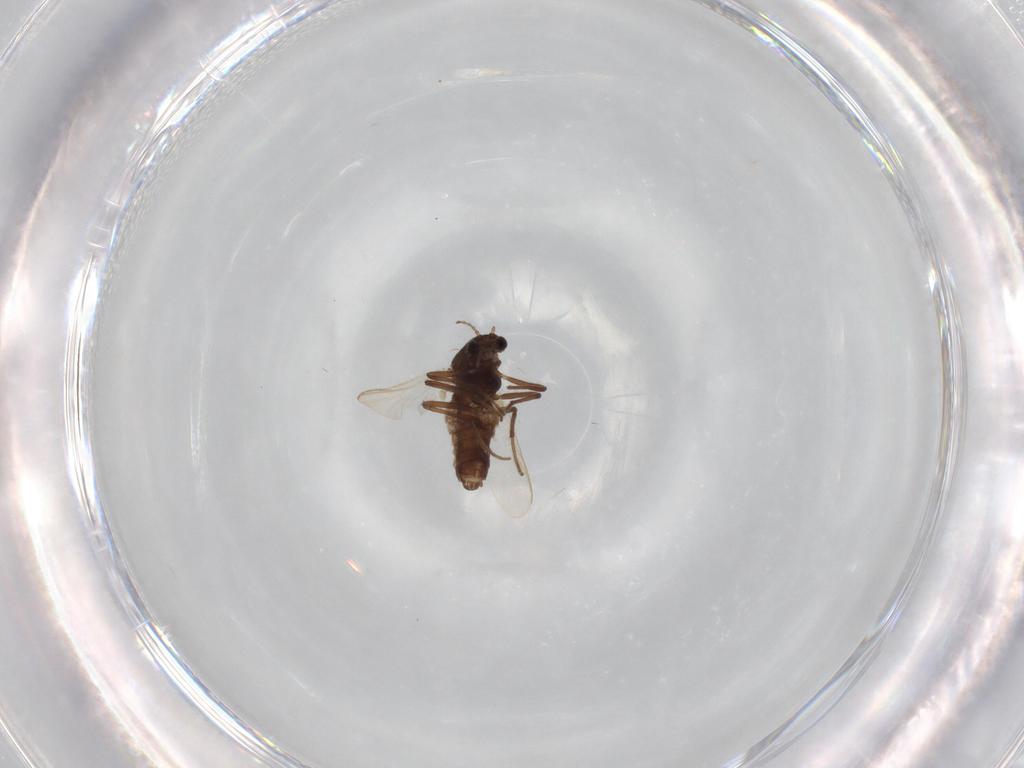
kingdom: Animalia
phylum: Arthropoda
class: Insecta
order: Diptera
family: Chironomidae
